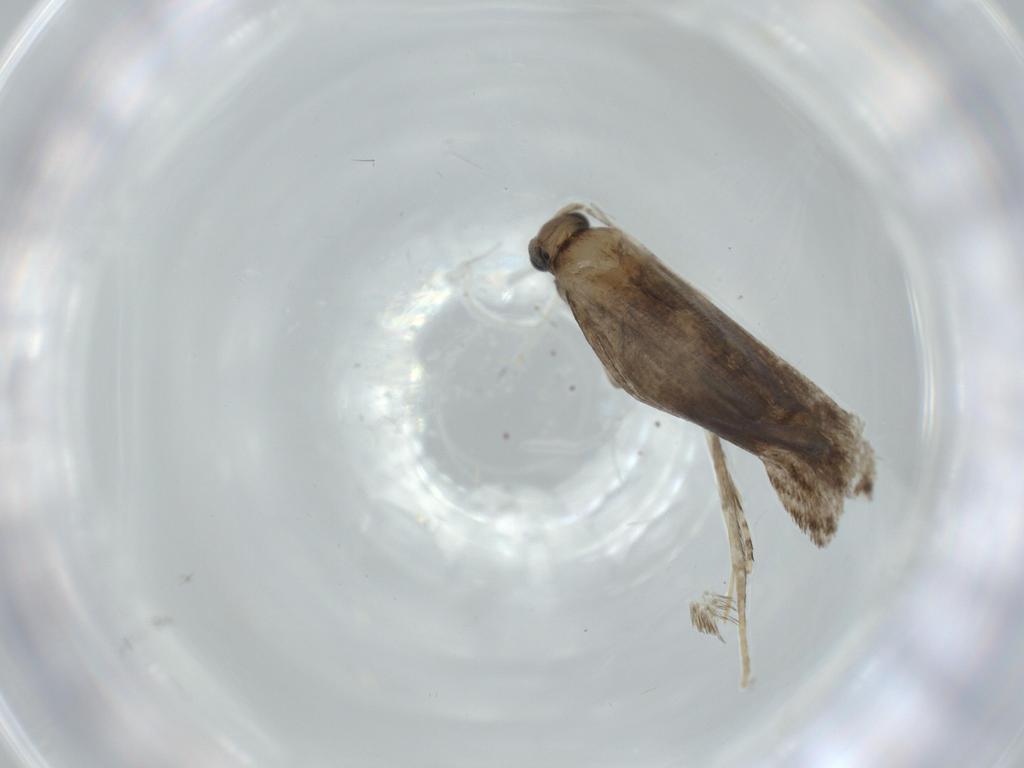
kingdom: Animalia
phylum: Arthropoda
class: Insecta
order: Lepidoptera
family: Tineidae
